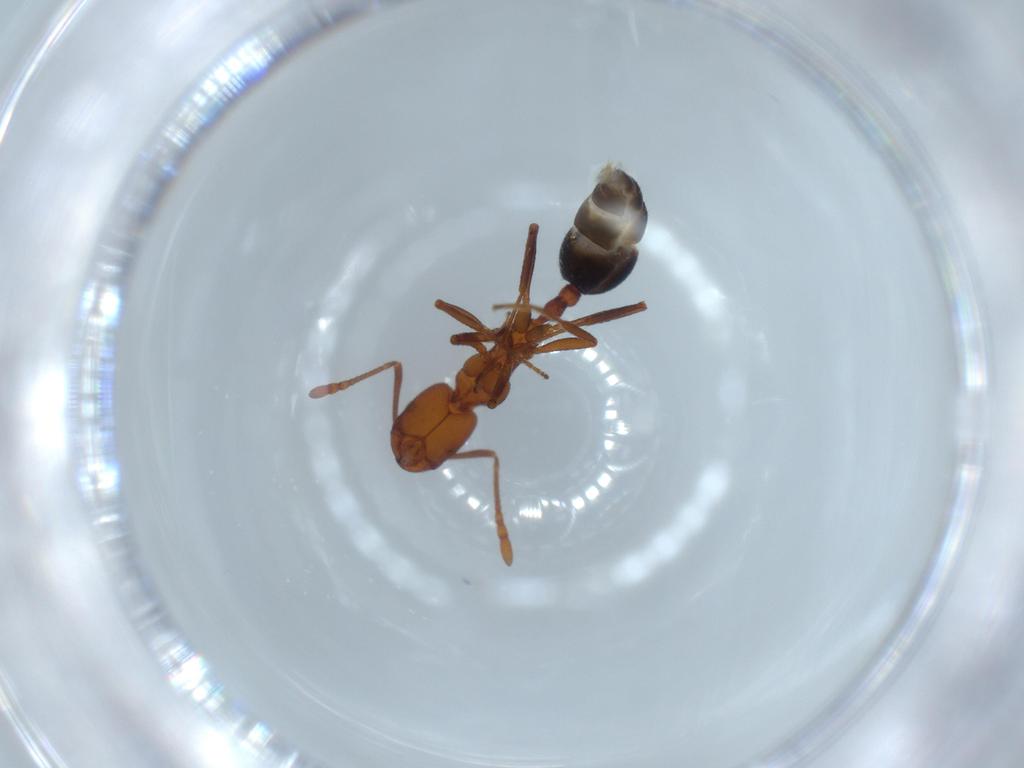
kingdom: Animalia
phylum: Arthropoda
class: Insecta
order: Hymenoptera
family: Formicidae
